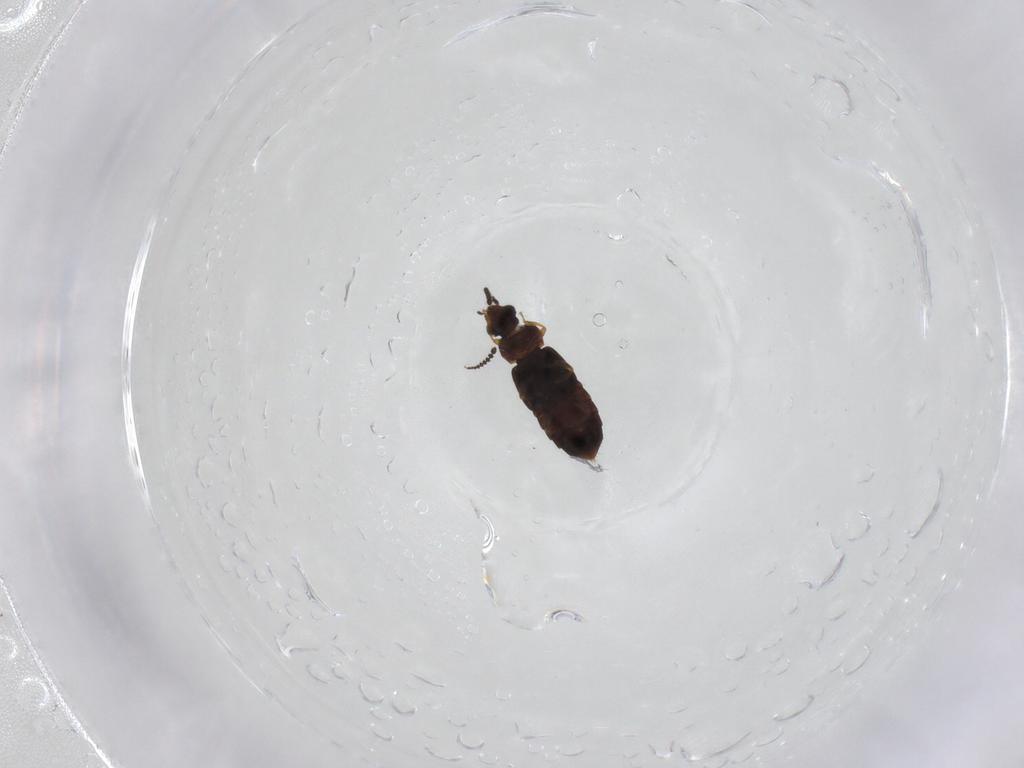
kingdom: Animalia
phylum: Arthropoda
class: Insecta
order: Coleoptera
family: Staphylinidae
